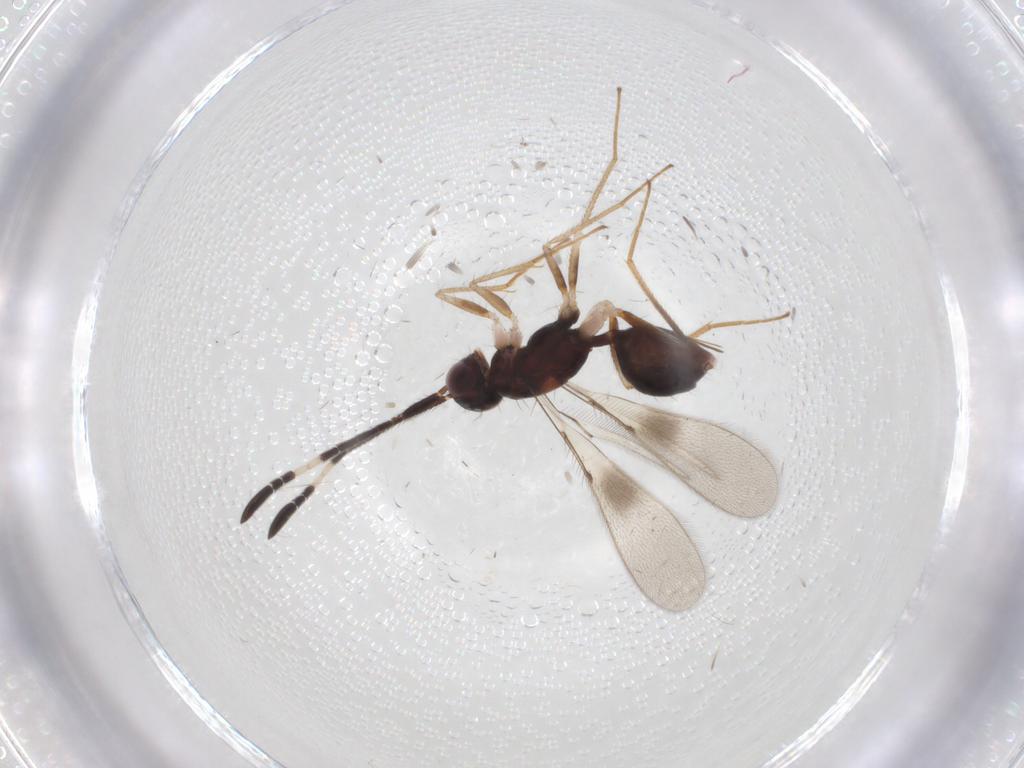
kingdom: Animalia
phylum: Arthropoda
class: Insecta
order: Hymenoptera
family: Mymaridae
